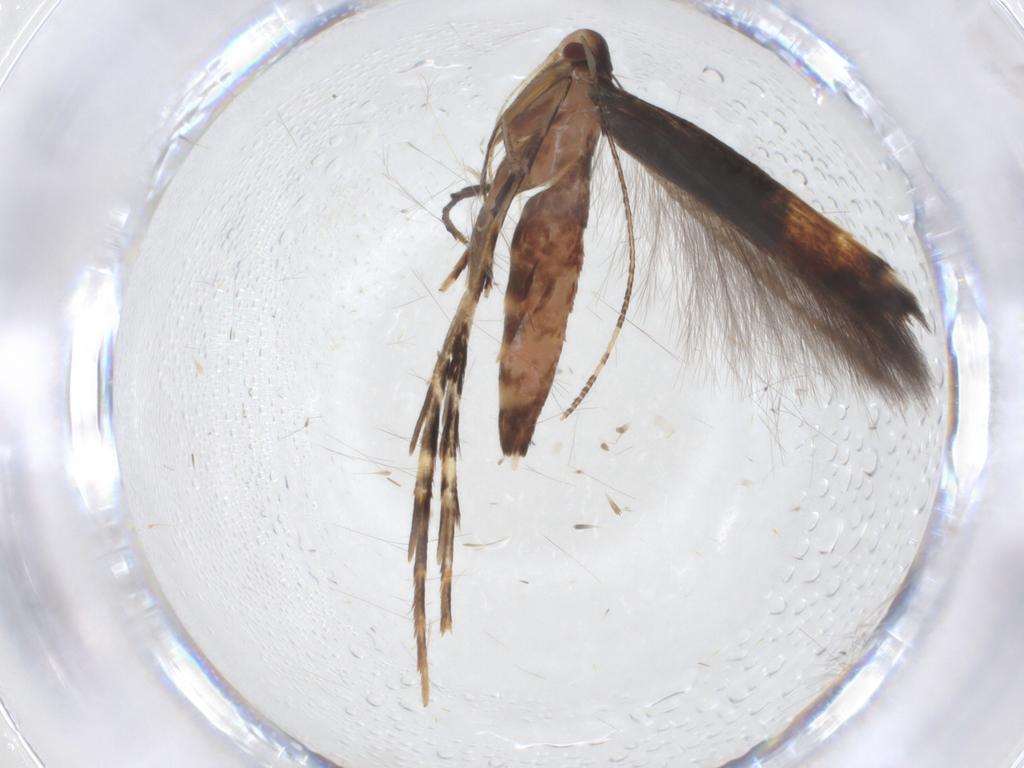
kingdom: Animalia
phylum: Arthropoda
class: Insecta
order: Lepidoptera
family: Cosmopterigidae
